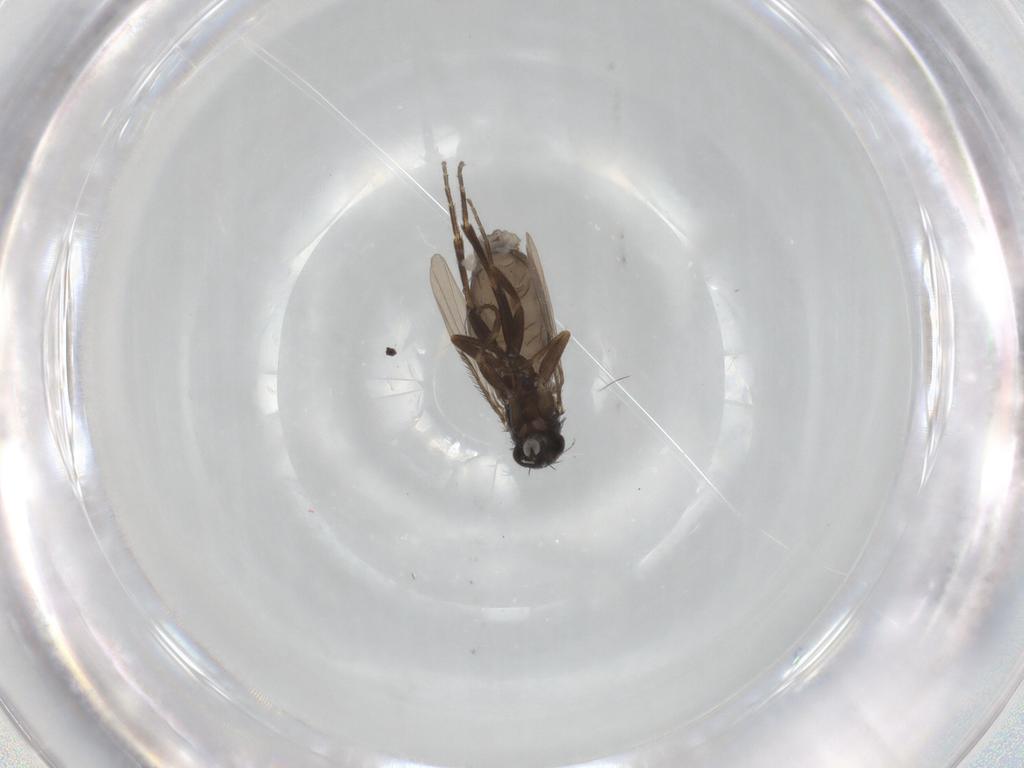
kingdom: Animalia
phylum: Arthropoda
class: Insecta
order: Diptera
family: Phoridae
